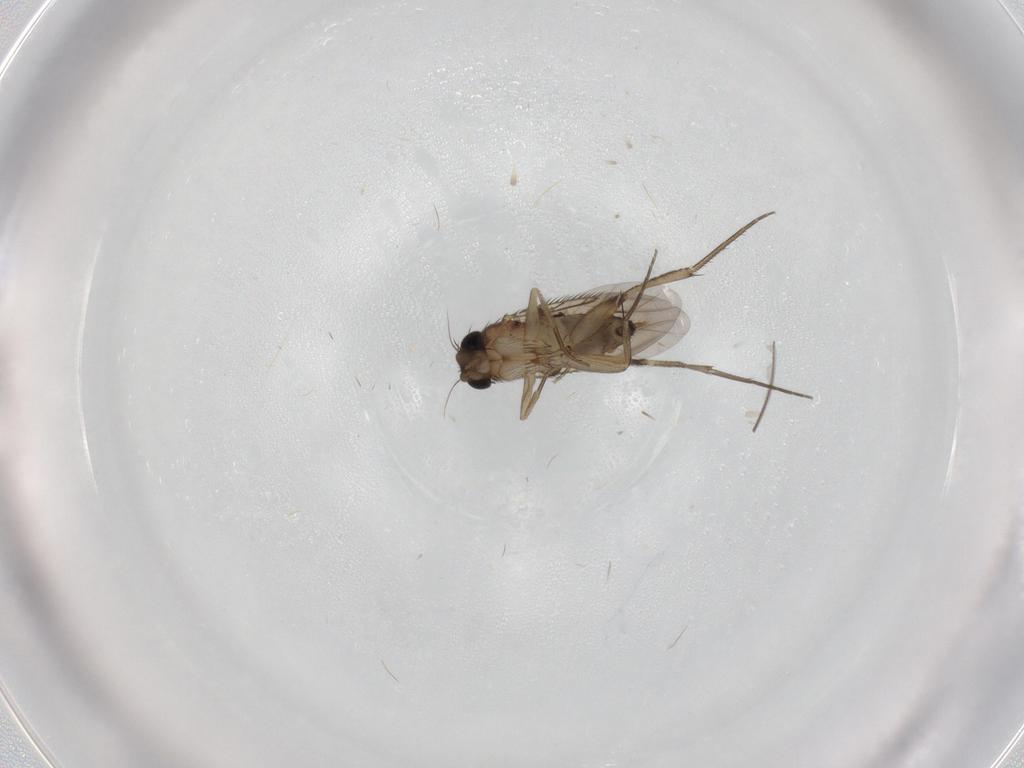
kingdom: Animalia
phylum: Arthropoda
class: Insecta
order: Diptera
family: Phoridae
